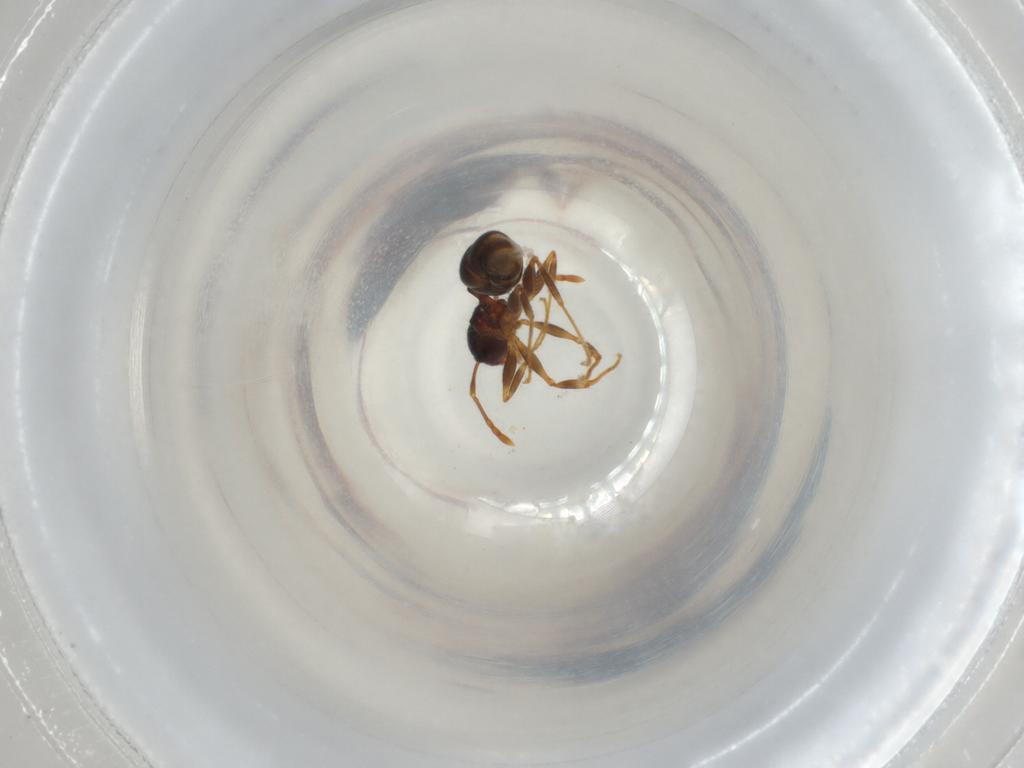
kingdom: Animalia
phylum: Arthropoda
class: Insecta
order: Hymenoptera
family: Formicidae
